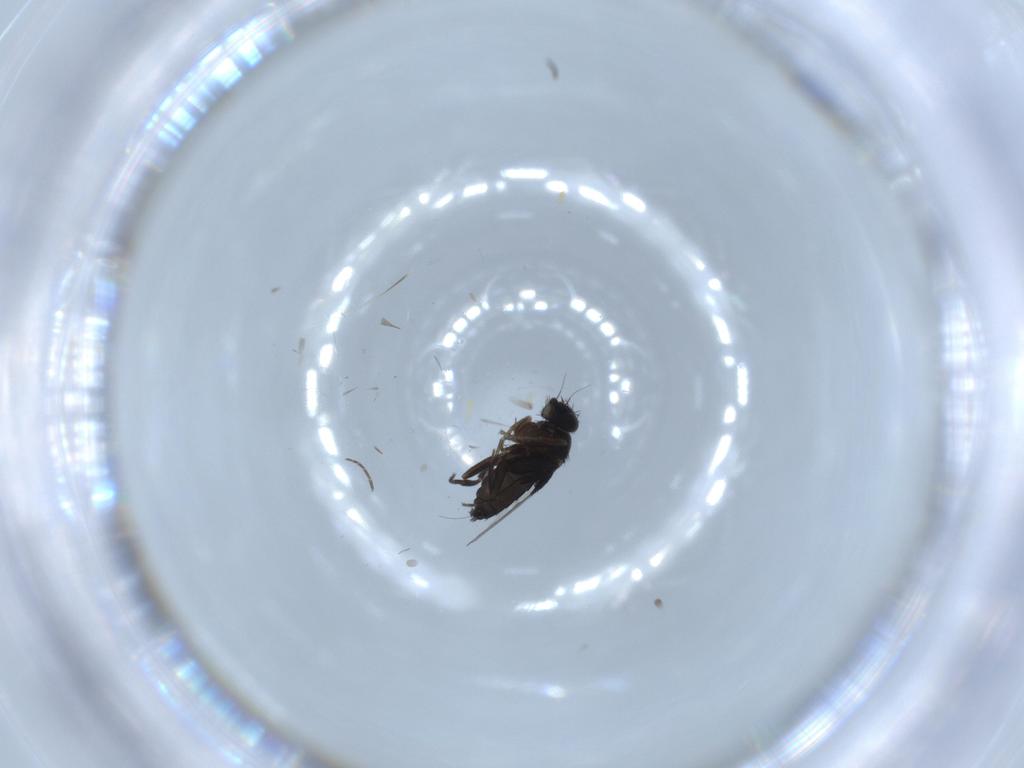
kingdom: Animalia
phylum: Arthropoda
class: Insecta
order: Diptera
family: Phoridae
